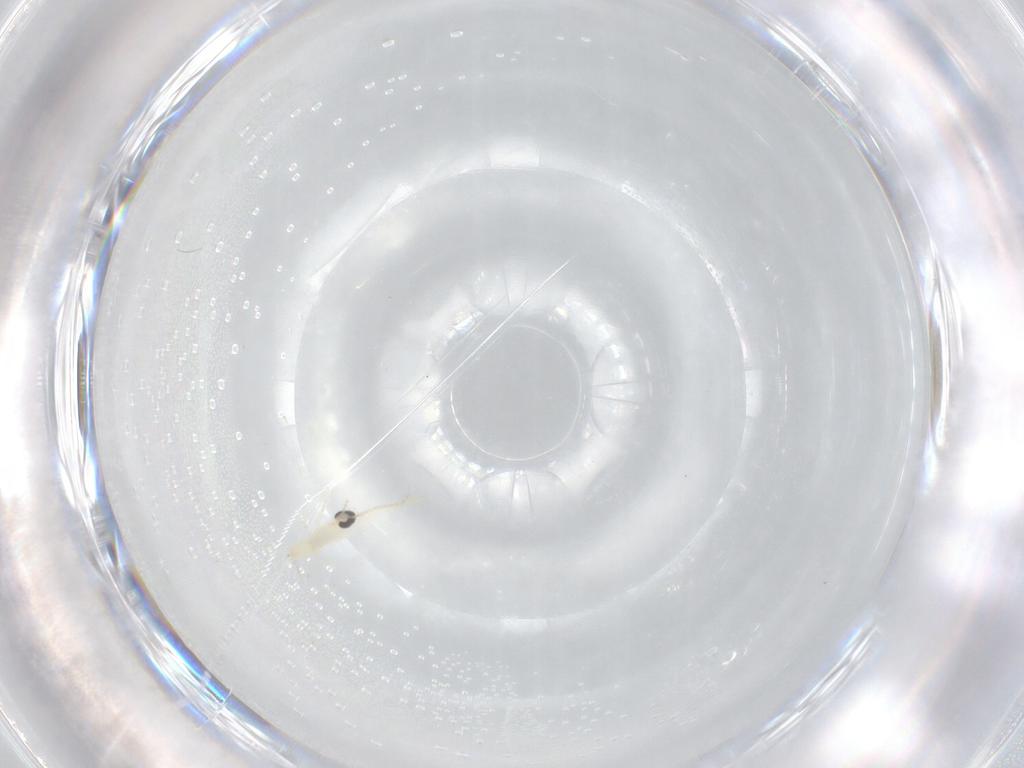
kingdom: Animalia
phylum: Arthropoda
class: Insecta
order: Diptera
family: Cecidomyiidae
